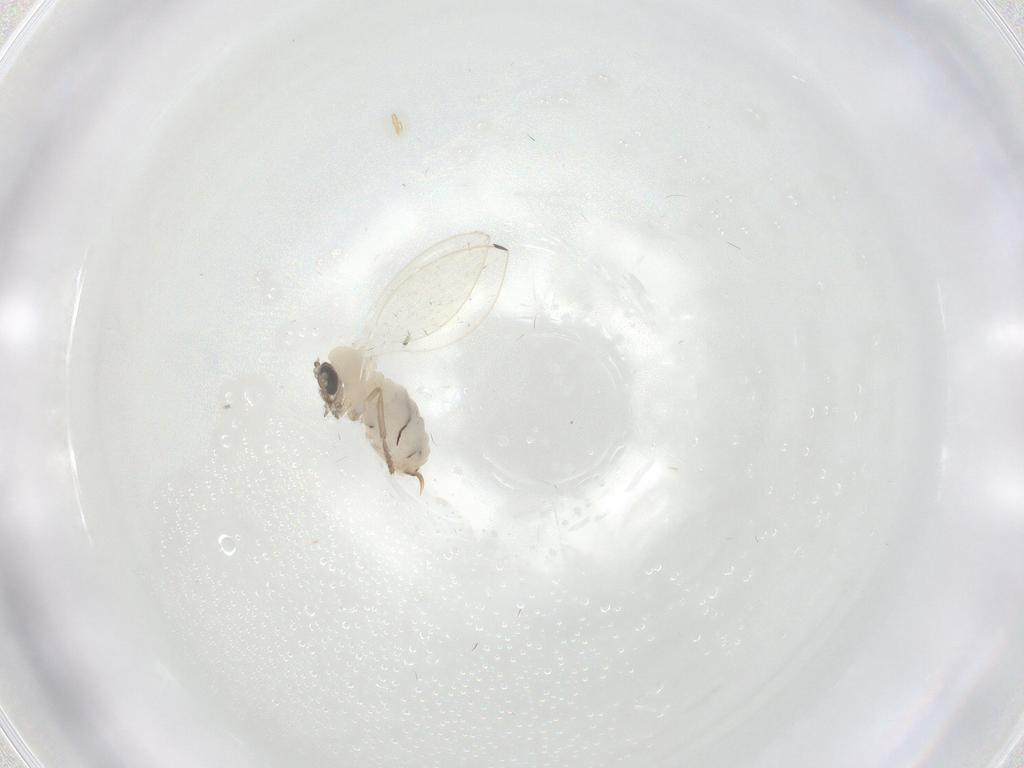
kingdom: Animalia
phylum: Arthropoda
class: Insecta
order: Diptera
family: Psychodidae
